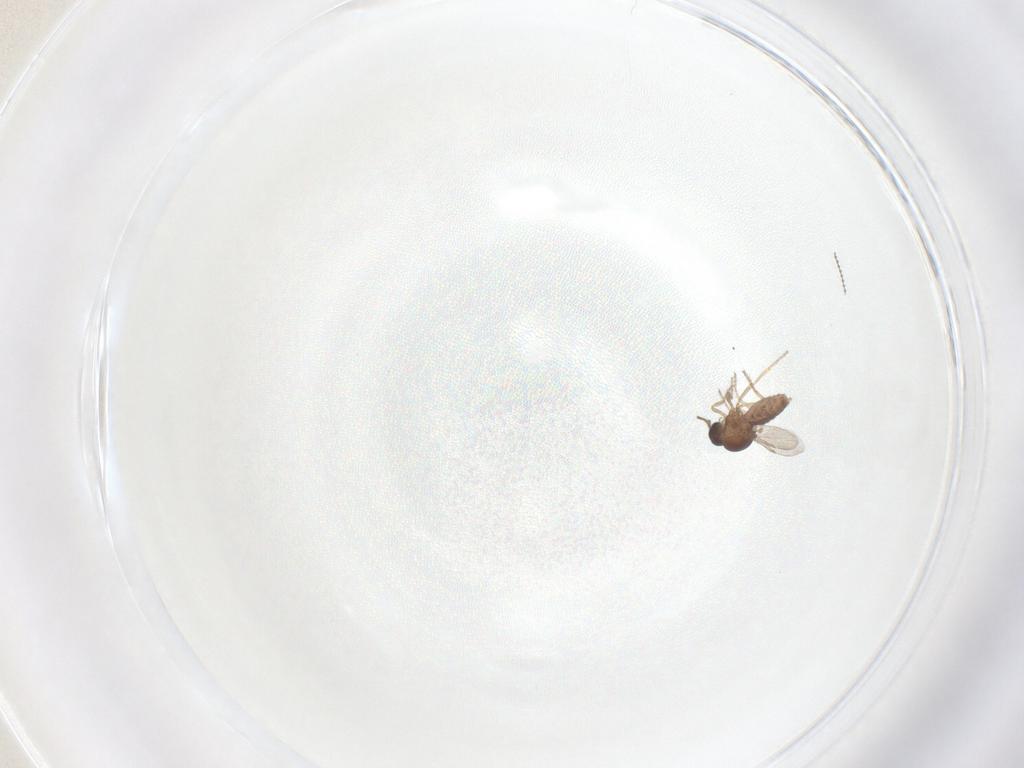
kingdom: Animalia
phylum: Arthropoda
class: Insecta
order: Diptera
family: Ceratopogonidae
